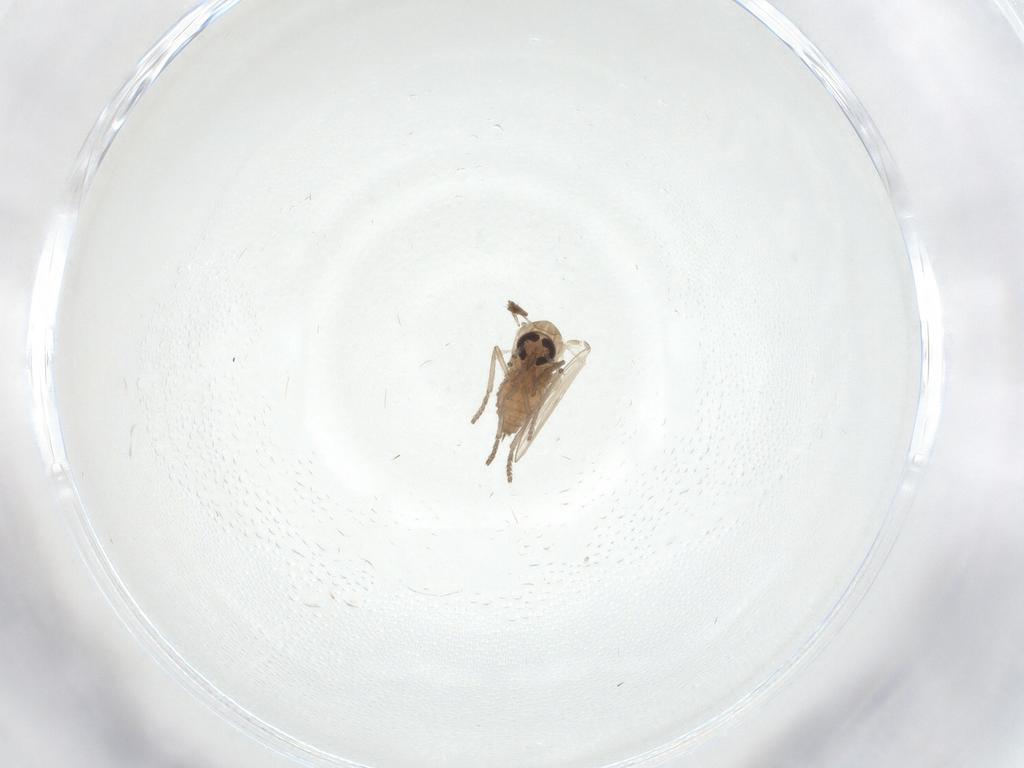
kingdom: Animalia
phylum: Arthropoda
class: Insecta
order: Diptera
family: Psychodidae
